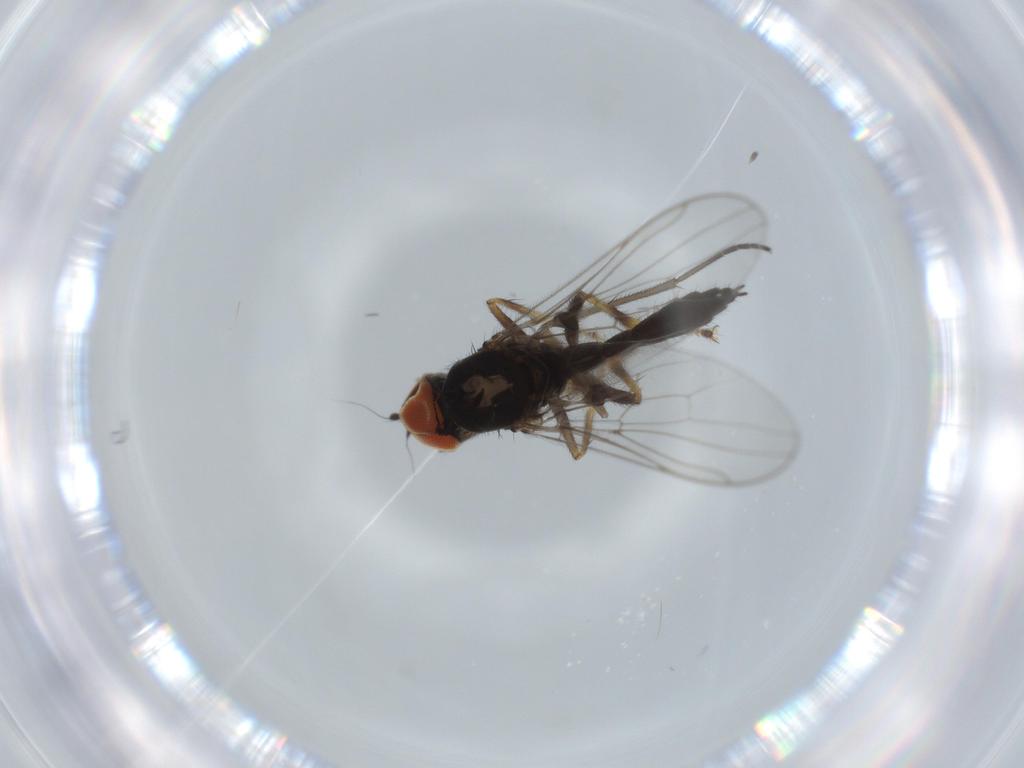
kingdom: Animalia
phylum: Arthropoda
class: Insecta
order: Diptera
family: Hybotidae
